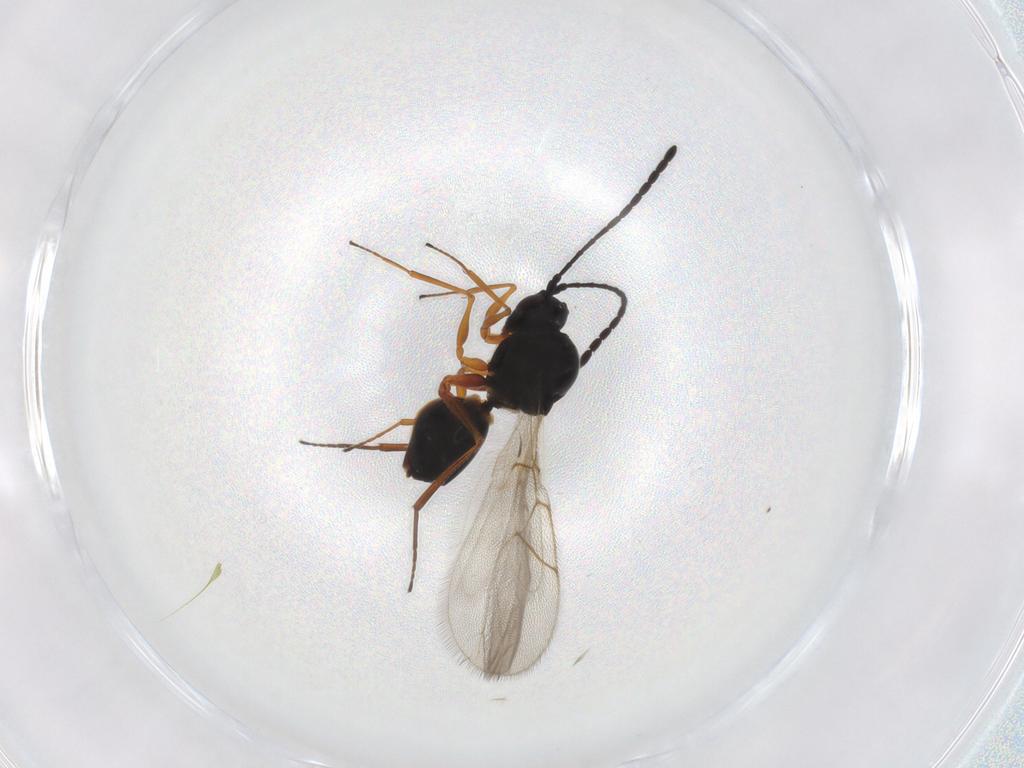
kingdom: Animalia
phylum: Arthropoda
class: Insecta
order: Hymenoptera
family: Figitidae
